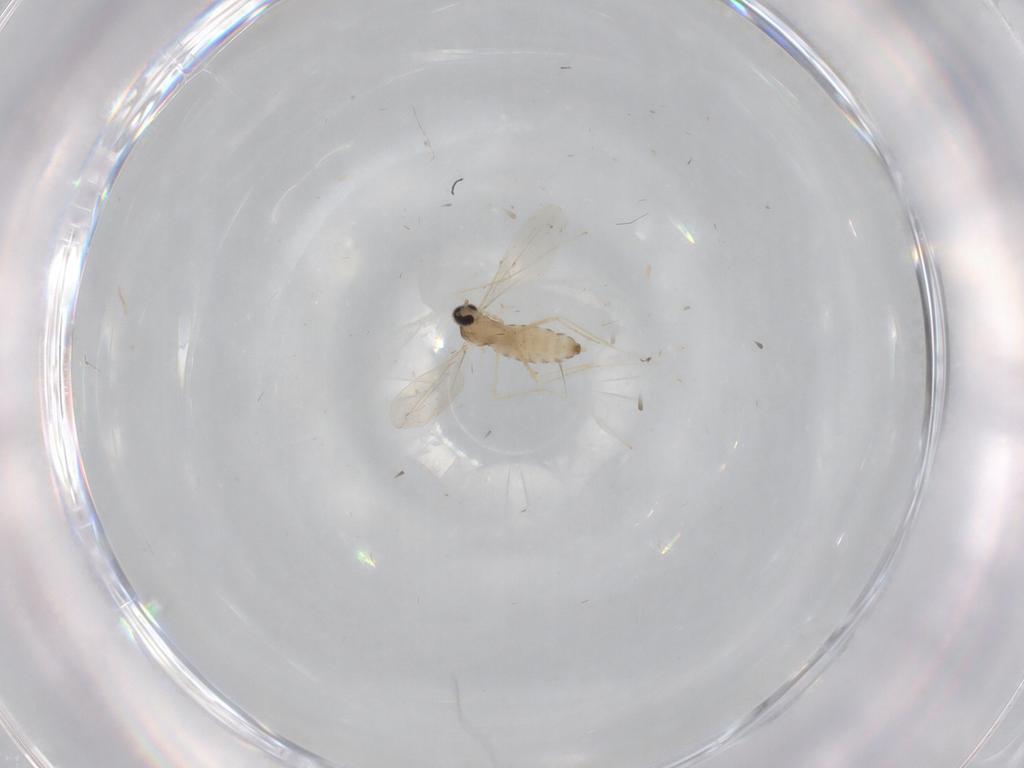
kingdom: Animalia
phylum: Arthropoda
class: Insecta
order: Diptera
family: Cecidomyiidae
